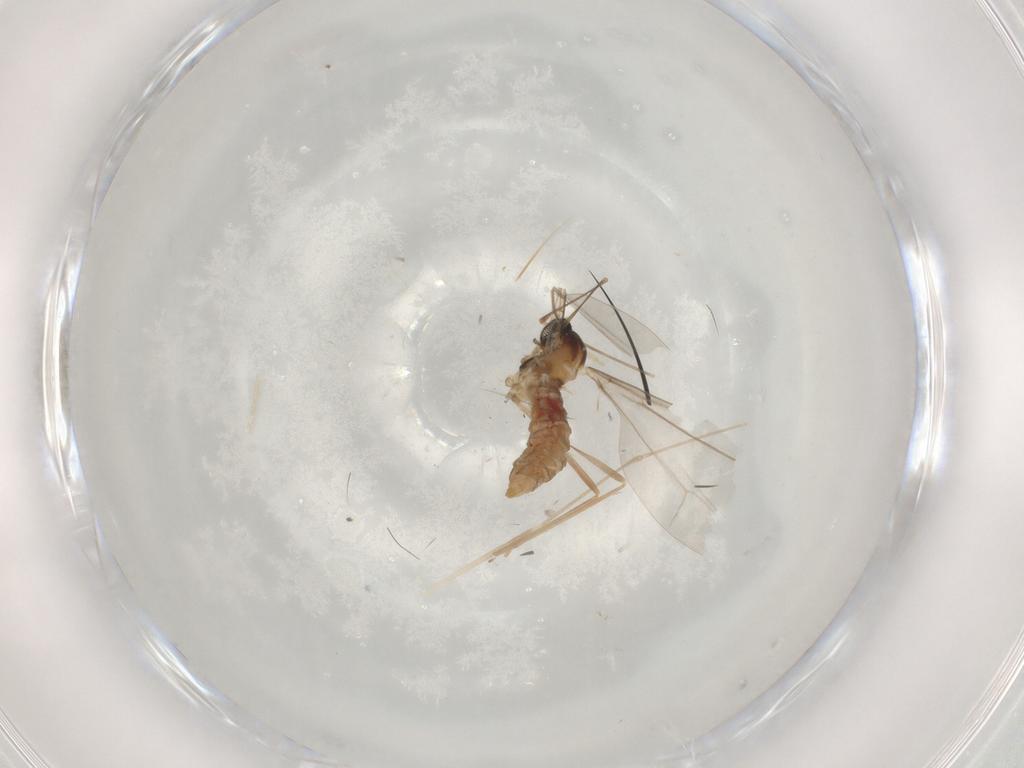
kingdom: Animalia
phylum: Arthropoda
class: Insecta
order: Diptera
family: Cecidomyiidae
